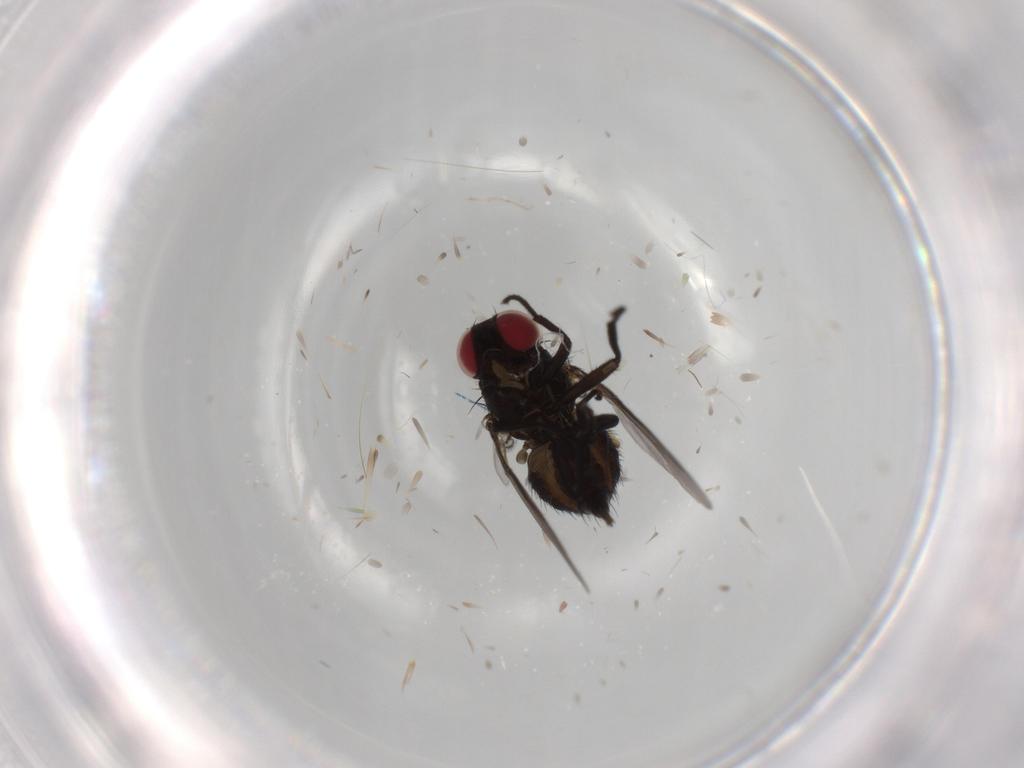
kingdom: Animalia
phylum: Arthropoda
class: Insecta
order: Diptera
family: Agromyzidae
